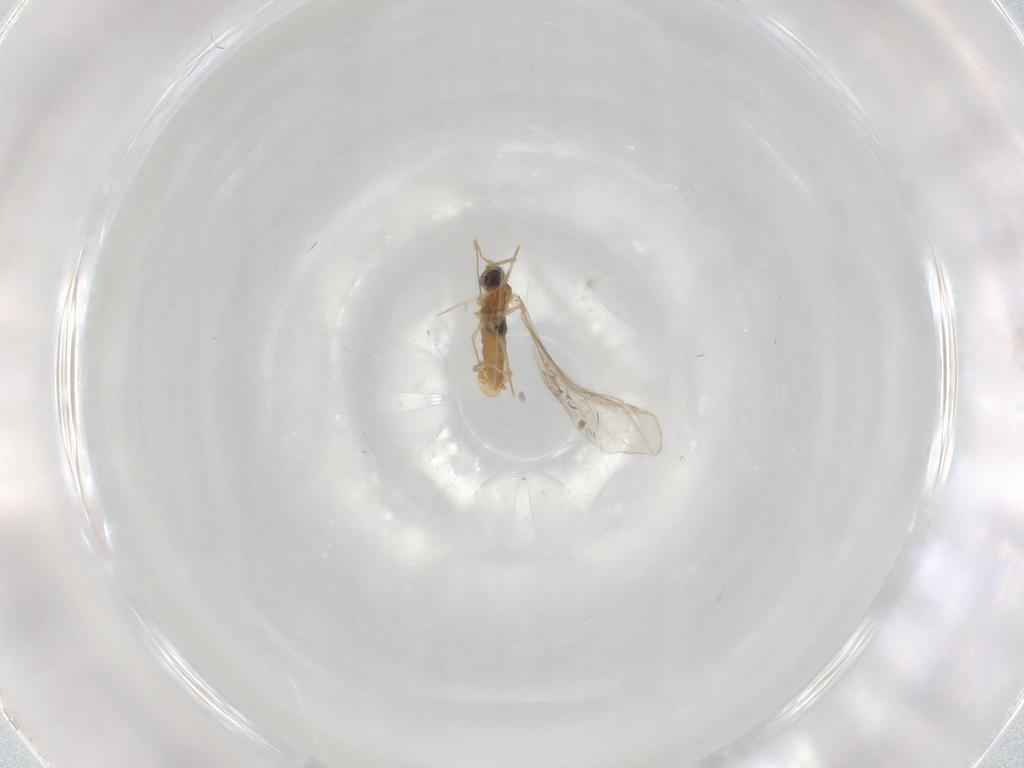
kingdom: Animalia
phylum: Arthropoda
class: Insecta
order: Diptera
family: Cecidomyiidae
